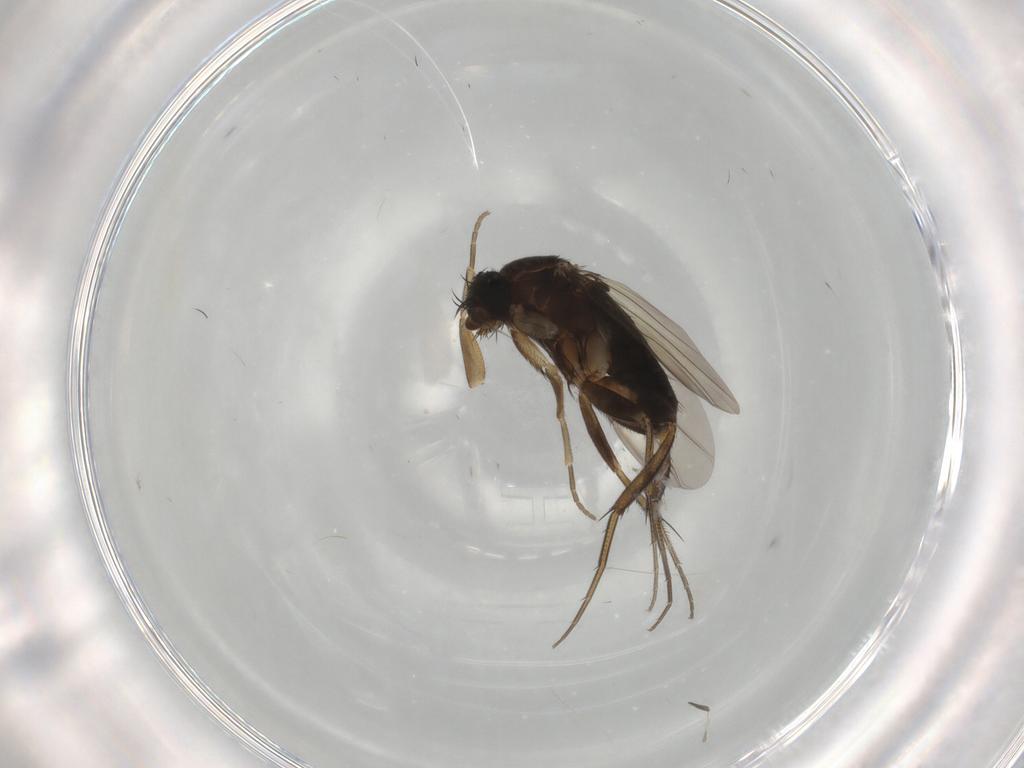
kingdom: Animalia
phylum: Arthropoda
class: Insecta
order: Diptera
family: Phoridae
